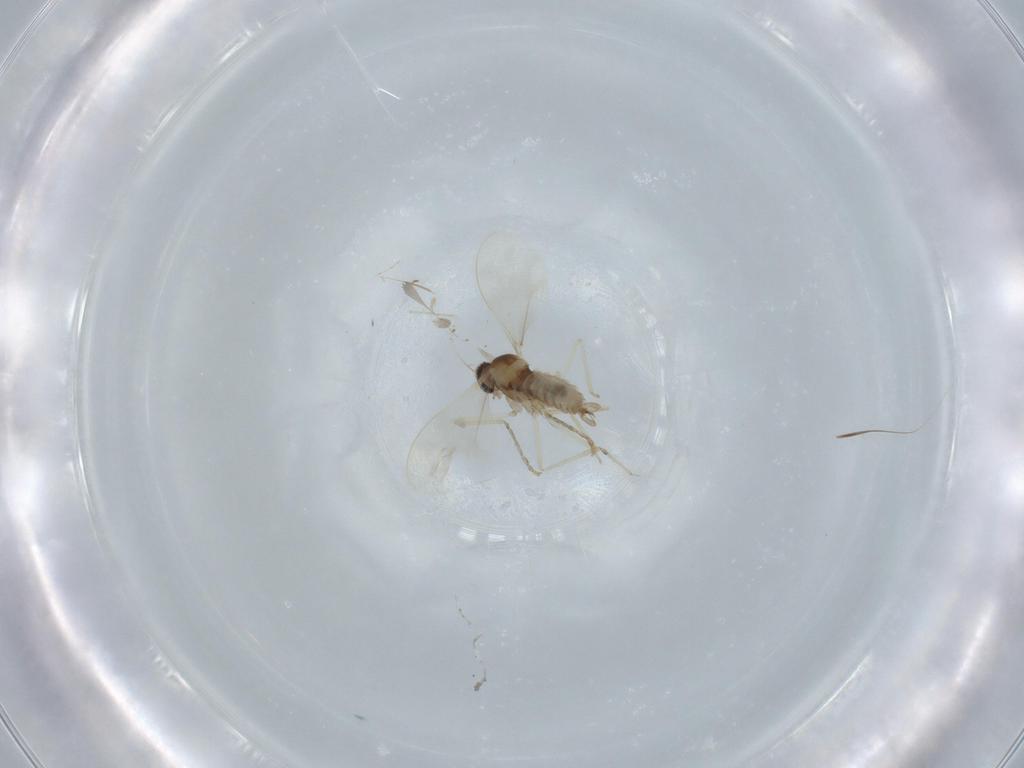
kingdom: Animalia
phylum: Arthropoda
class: Insecta
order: Diptera
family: Cecidomyiidae
